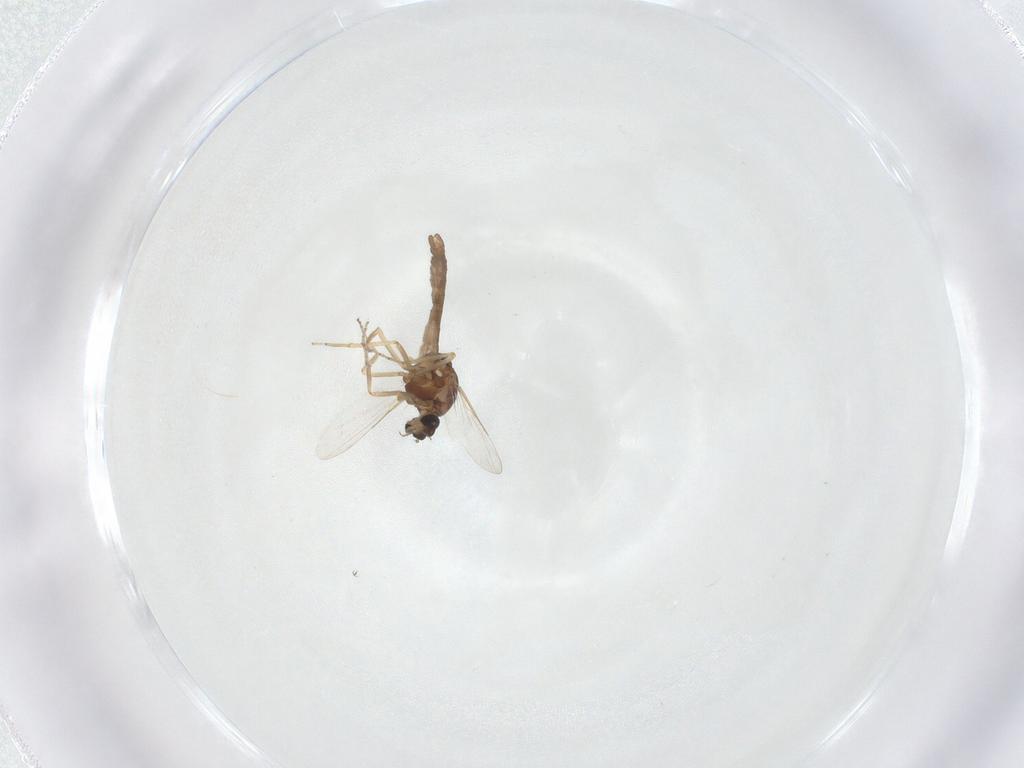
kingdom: Animalia
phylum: Arthropoda
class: Insecta
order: Diptera
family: Ceratopogonidae
